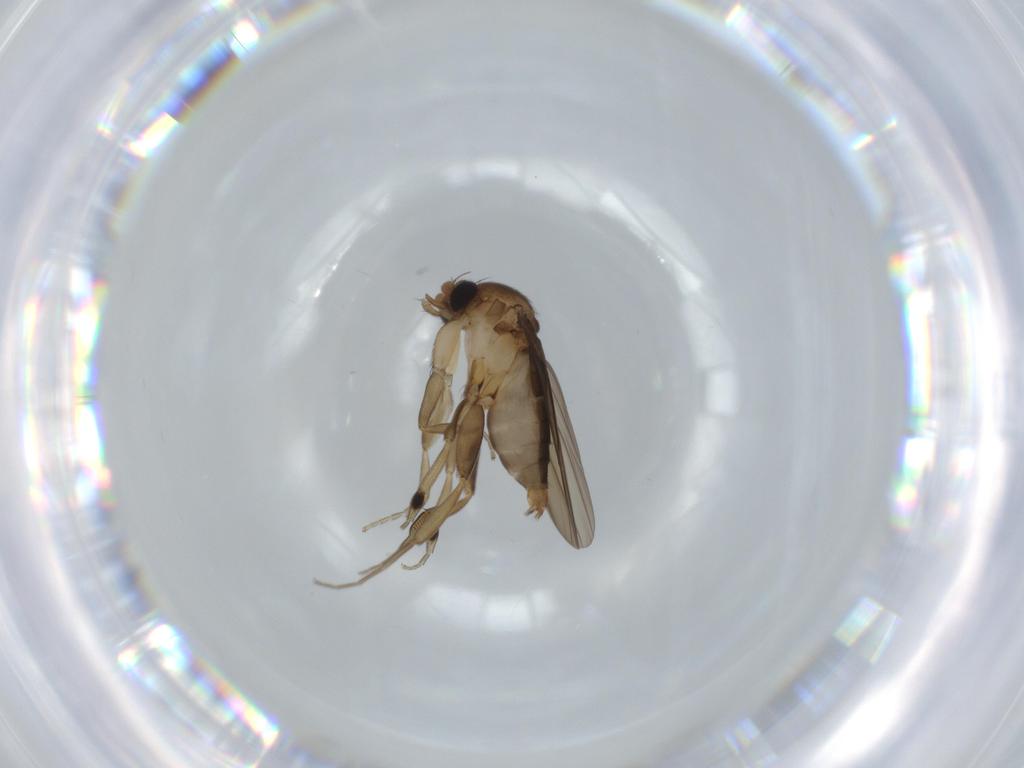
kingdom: Animalia
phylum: Arthropoda
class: Insecta
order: Diptera
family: Phoridae
